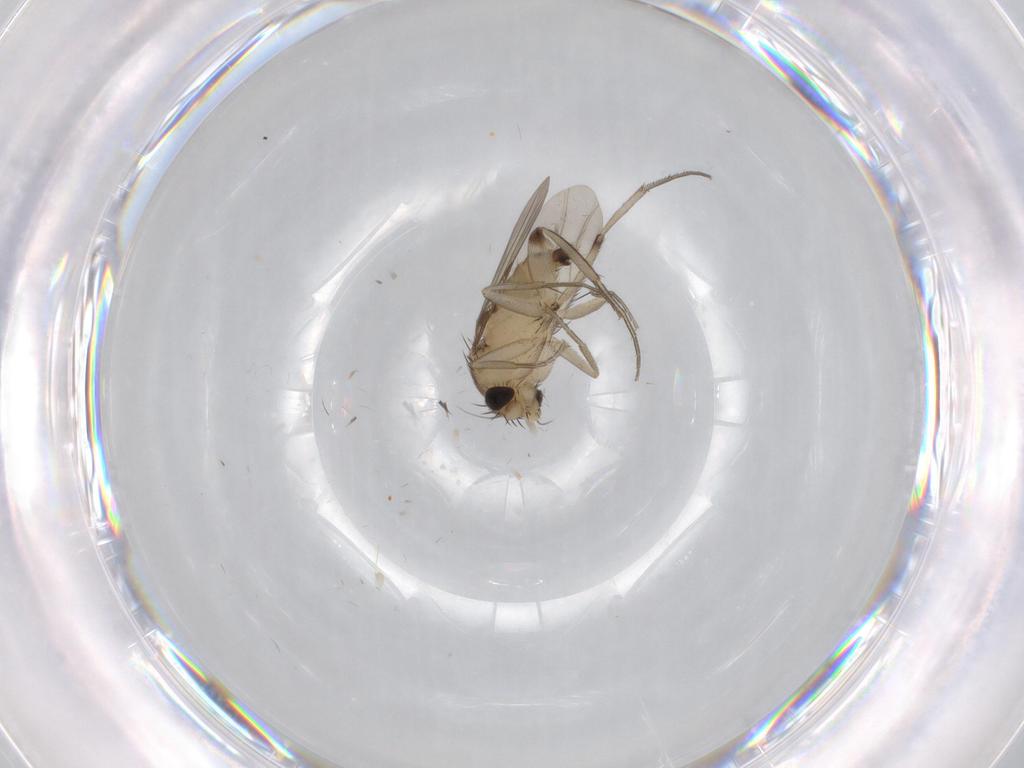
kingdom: Animalia
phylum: Arthropoda
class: Insecta
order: Diptera
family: Phoridae
